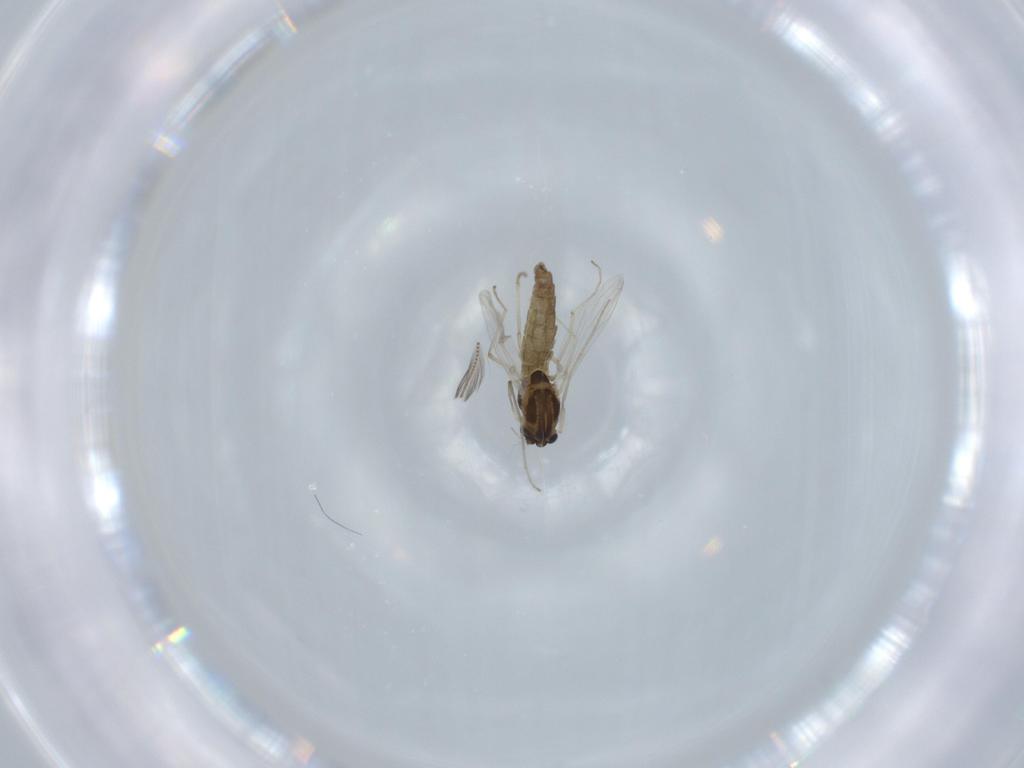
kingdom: Animalia
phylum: Arthropoda
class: Insecta
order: Diptera
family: Chironomidae
